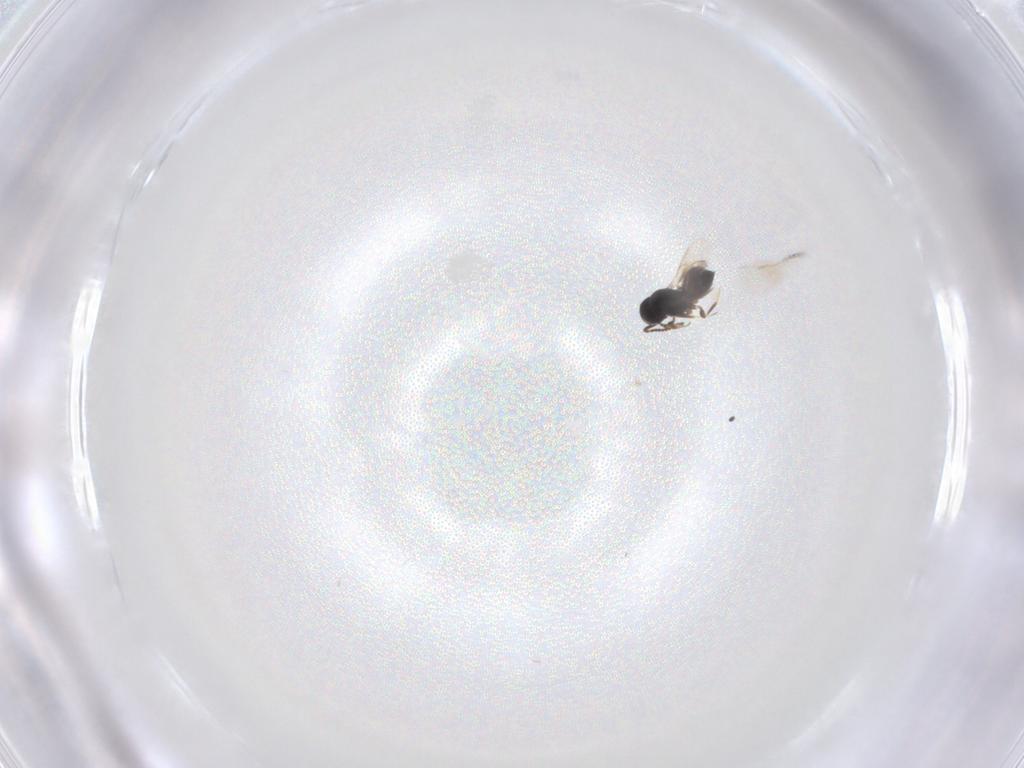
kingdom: Animalia
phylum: Arthropoda
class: Insecta
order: Hymenoptera
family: Scelionidae
